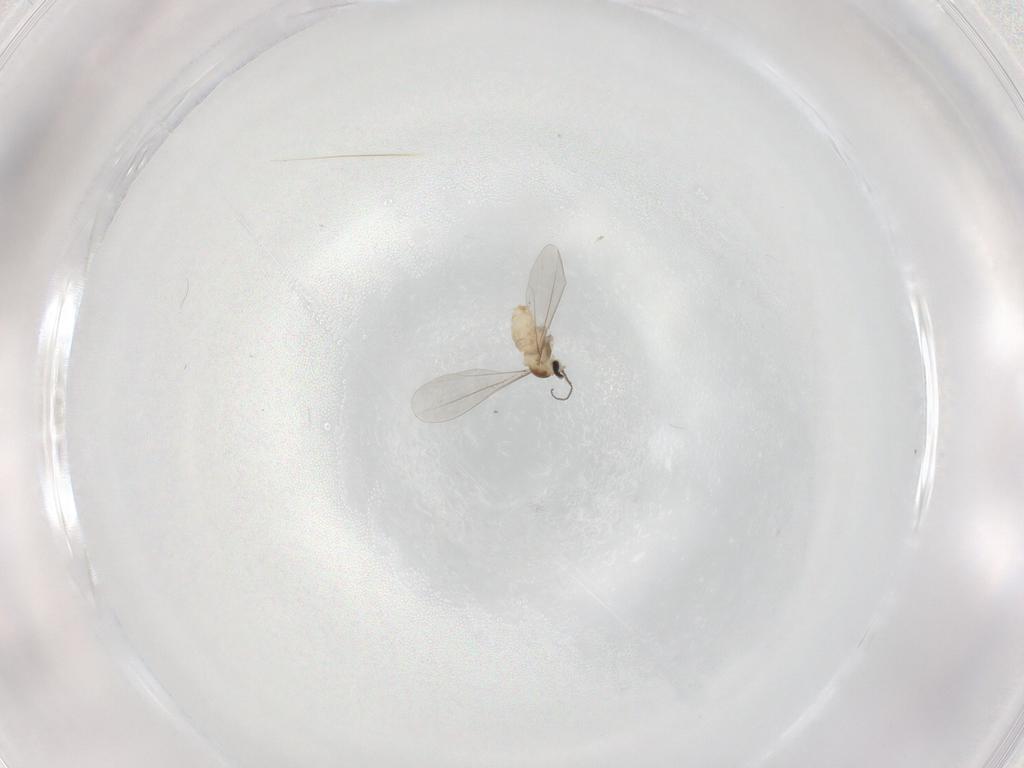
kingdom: Animalia
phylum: Arthropoda
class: Insecta
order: Diptera
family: Cecidomyiidae
